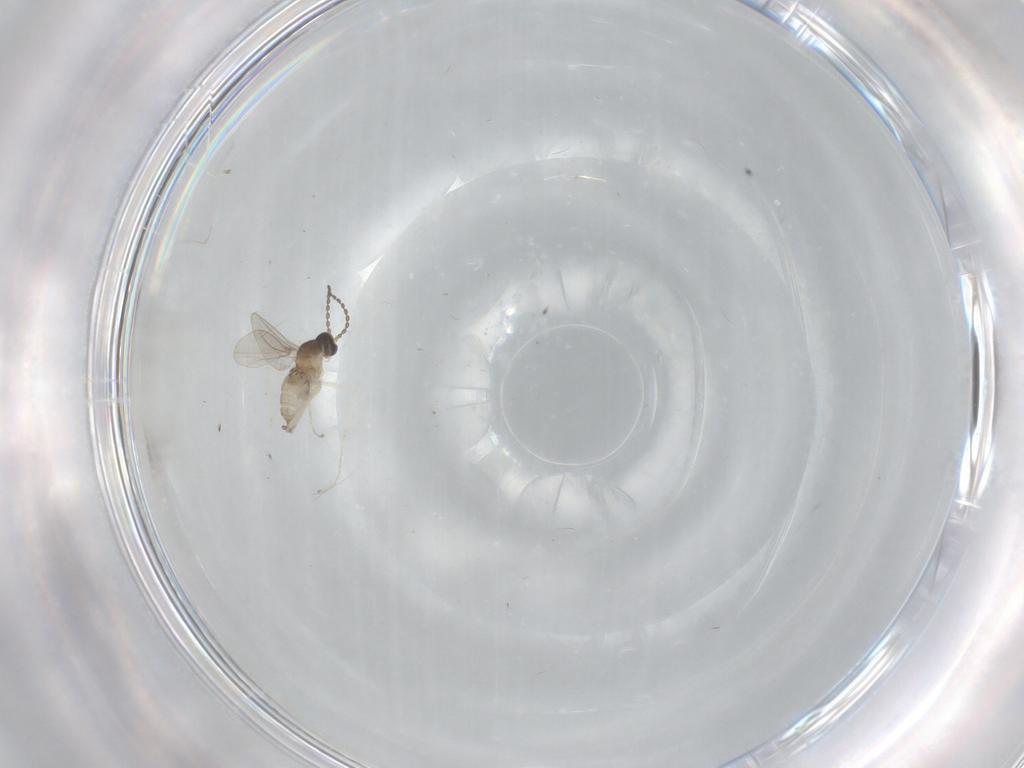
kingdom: Animalia
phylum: Arthropoda
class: Insecta
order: Diptera
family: Cecidomyiidae
